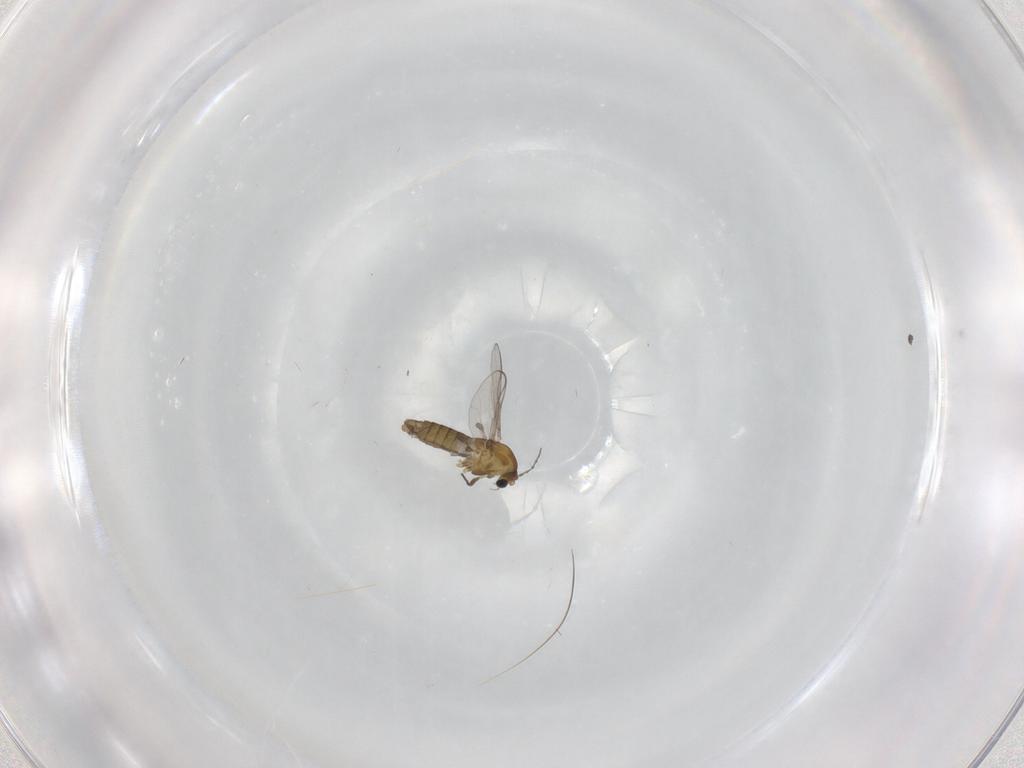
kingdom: Animalia
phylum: Arthropoda
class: Insecta
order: Diptera
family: Chironomidae
